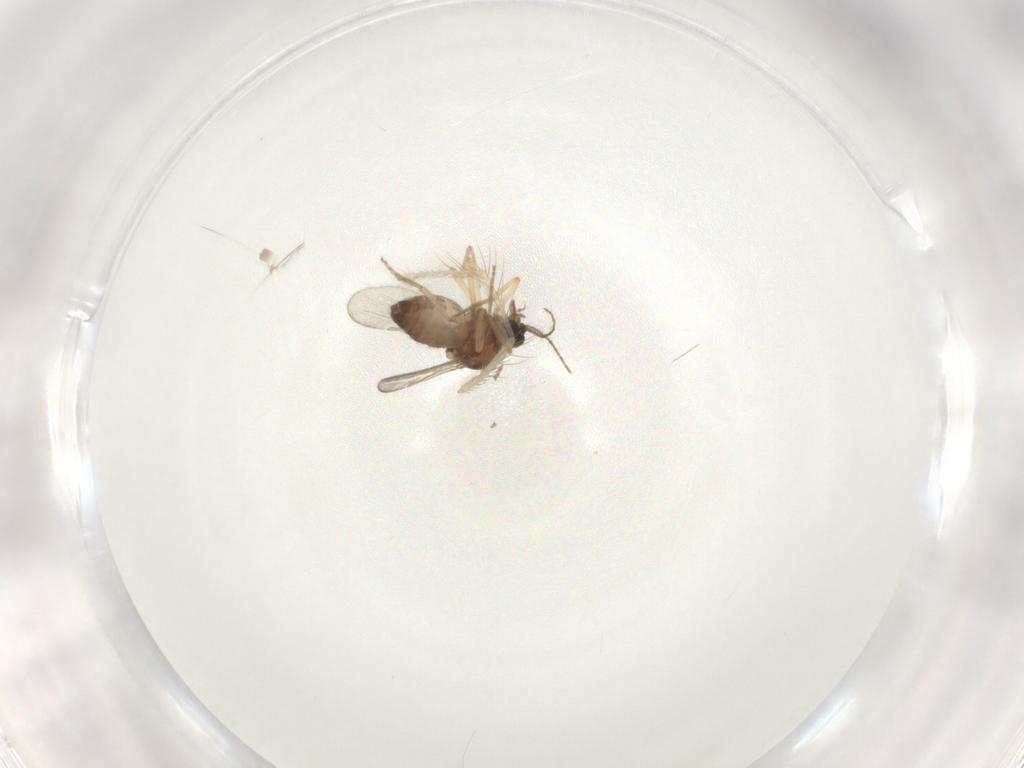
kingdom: Animalia
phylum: Arthropoda
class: Insecta
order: Diptera
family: Ceratopogonidae
